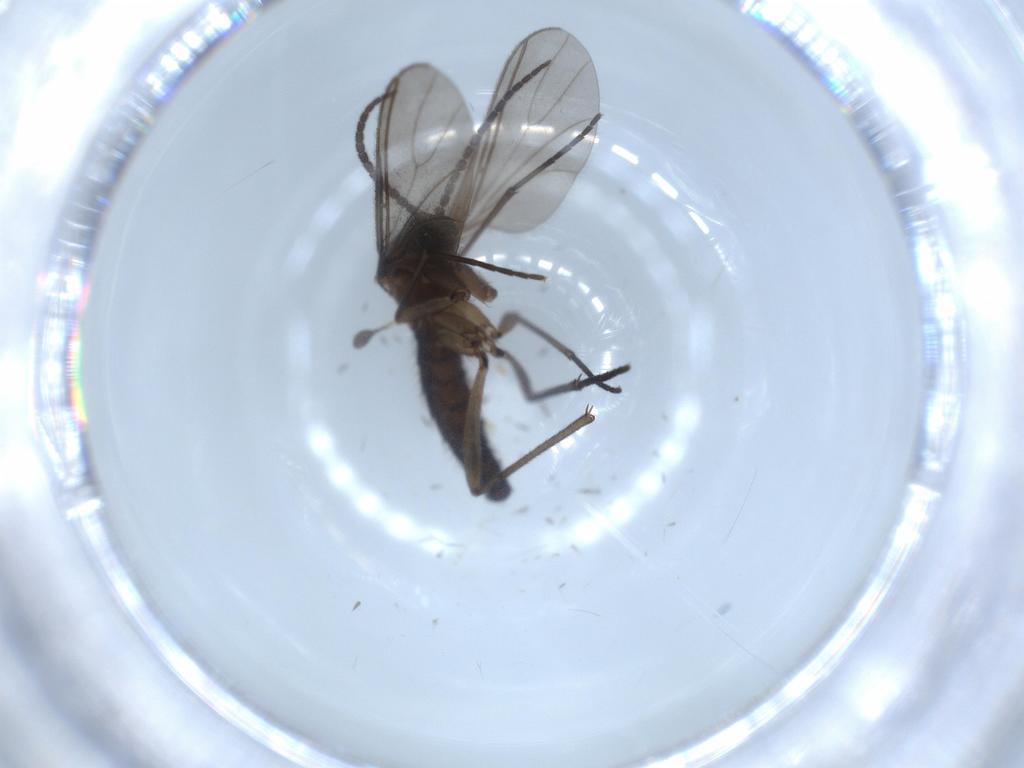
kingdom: Animalia
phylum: Arthropoda
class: Insecta
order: Diptera
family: Sciaridae
